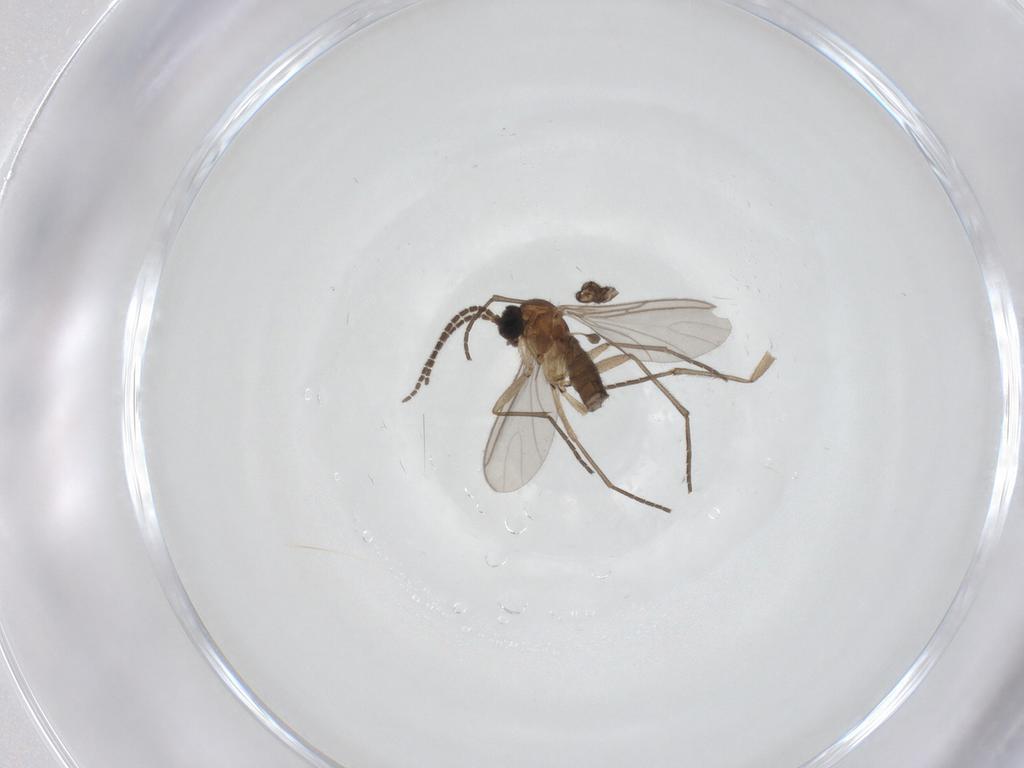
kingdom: Animalia
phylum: Arthropoda
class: Insecta
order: Diptera
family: Sciaridae
